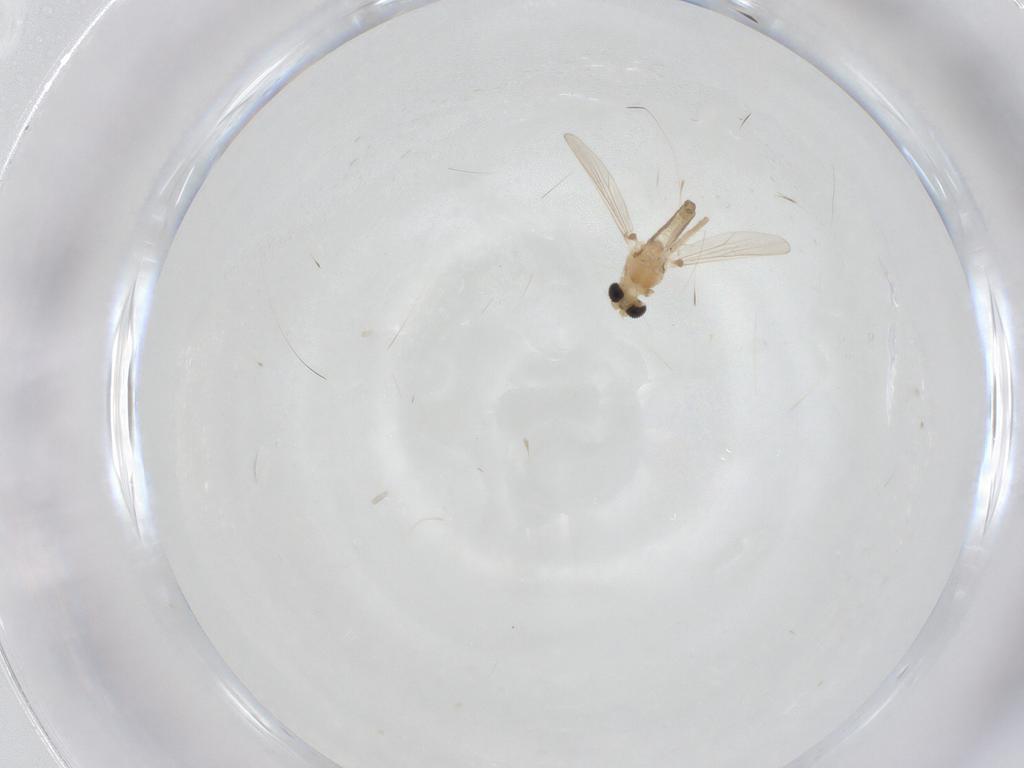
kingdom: Animalia
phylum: Arthropoda
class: Insecta
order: Diptera
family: Chironomidae
